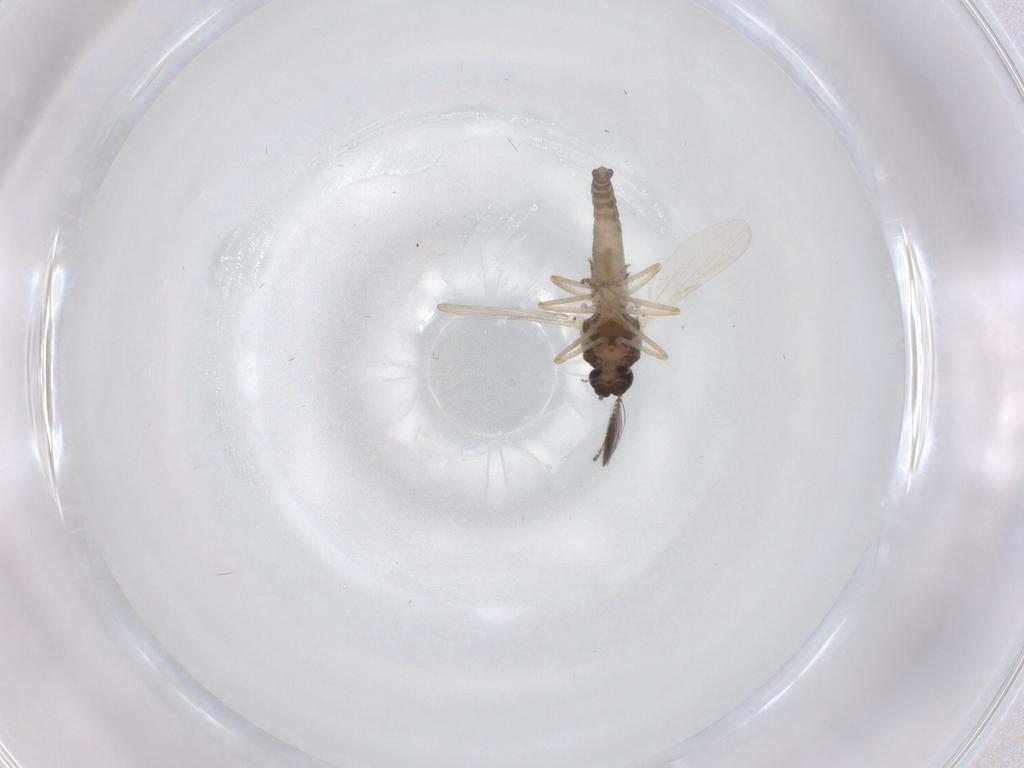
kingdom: Animalia
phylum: Arthropoda
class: Insecta
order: Diptera
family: Ceratopogonidae
